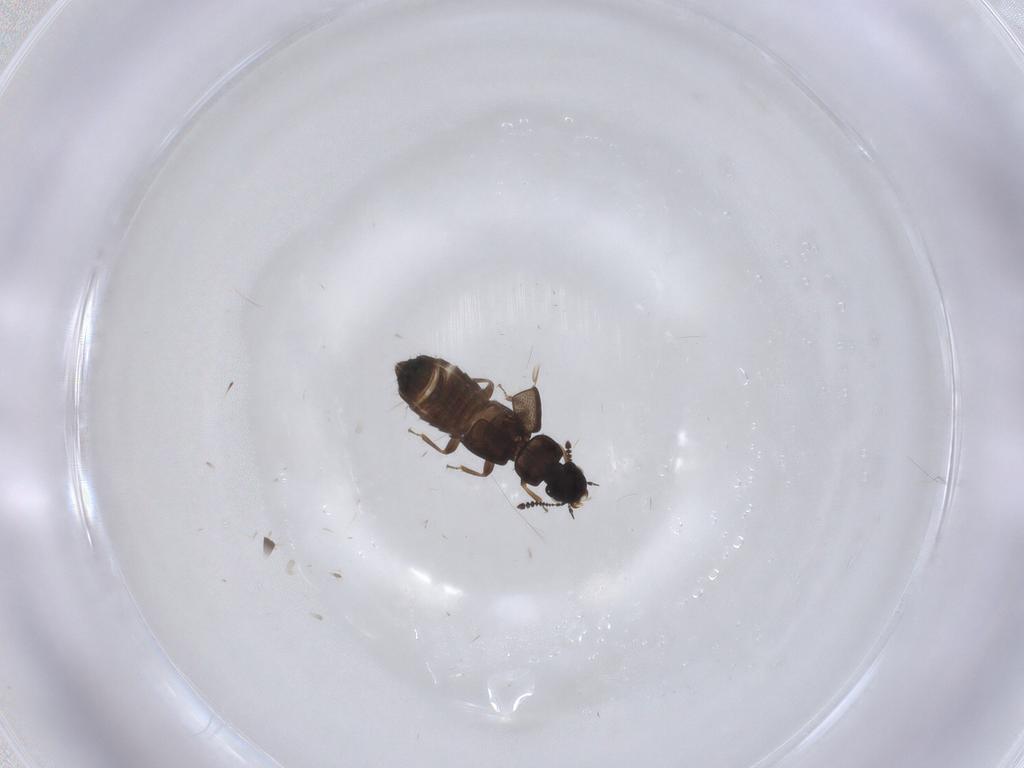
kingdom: Animalia
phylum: Arthropoda
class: Insecta
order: Coleoptera
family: Staphylinidae
